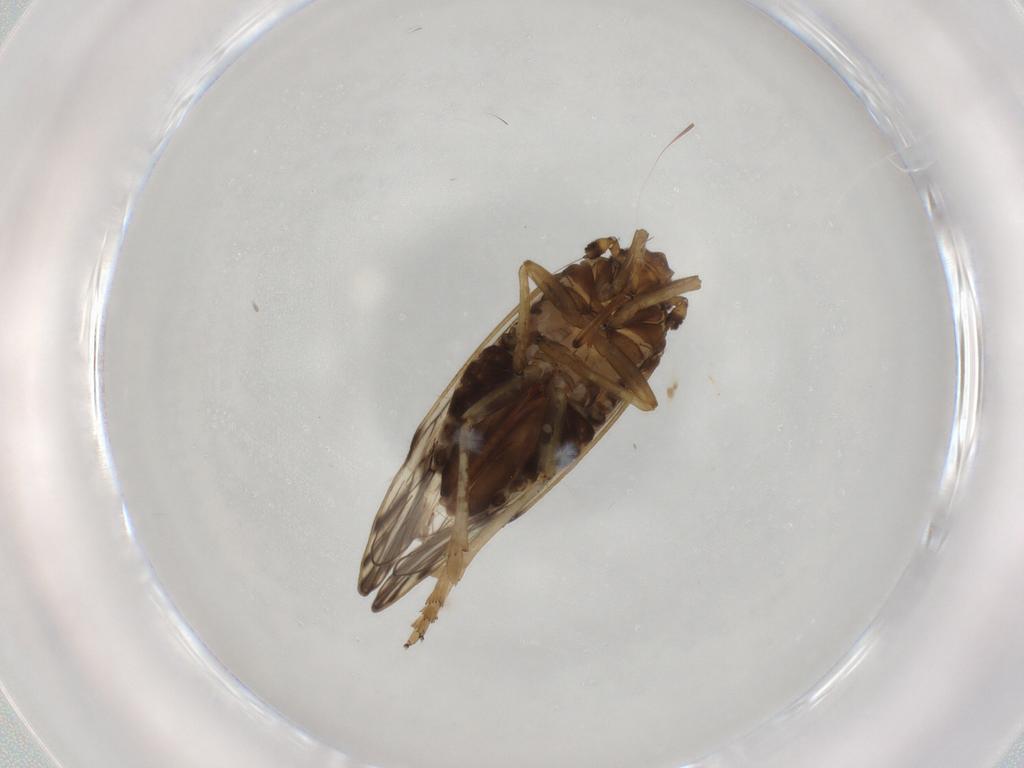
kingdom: Animalia
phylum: Arthropoda
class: Insecta
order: Hemiptera
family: Delphacidae
